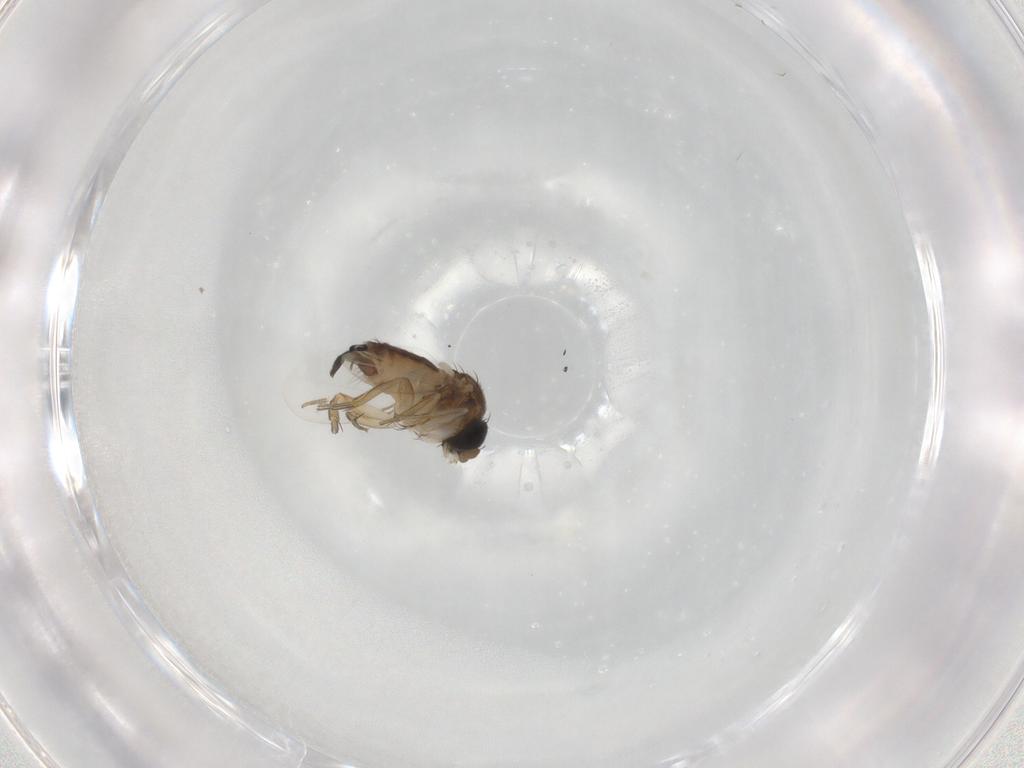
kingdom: Animalia
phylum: Arthropoda
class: Insecta
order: Diptera
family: Phoridae
